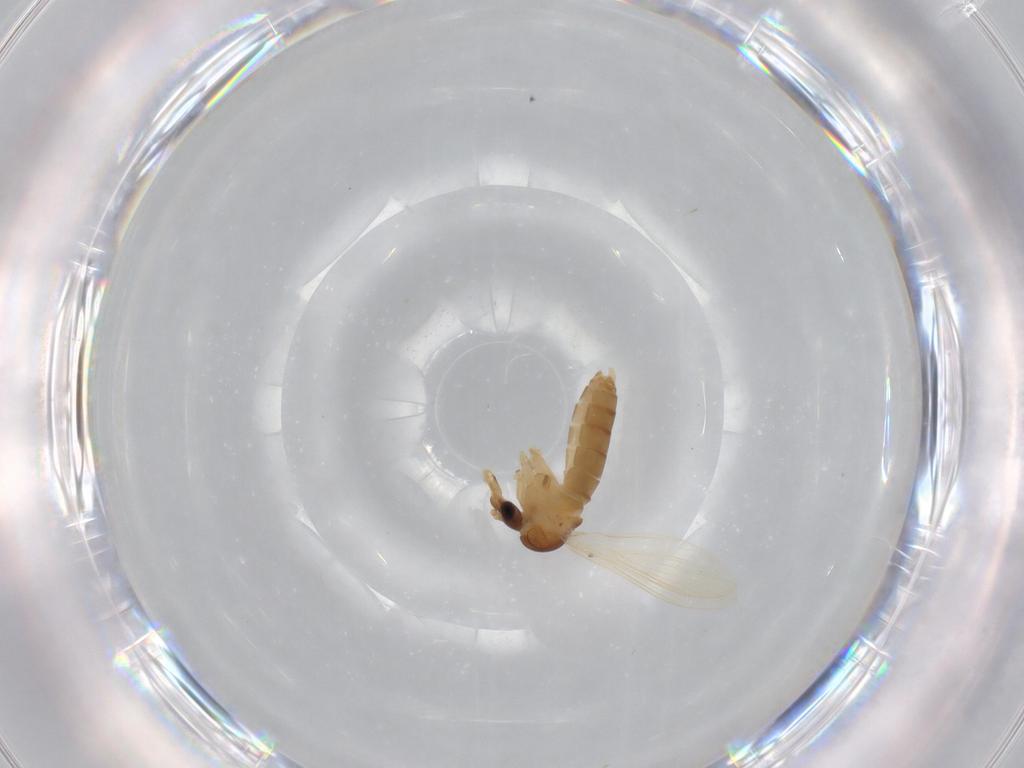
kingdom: Animalia
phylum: Arthropoda
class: Insecta
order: Diptera
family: Psychodidae
